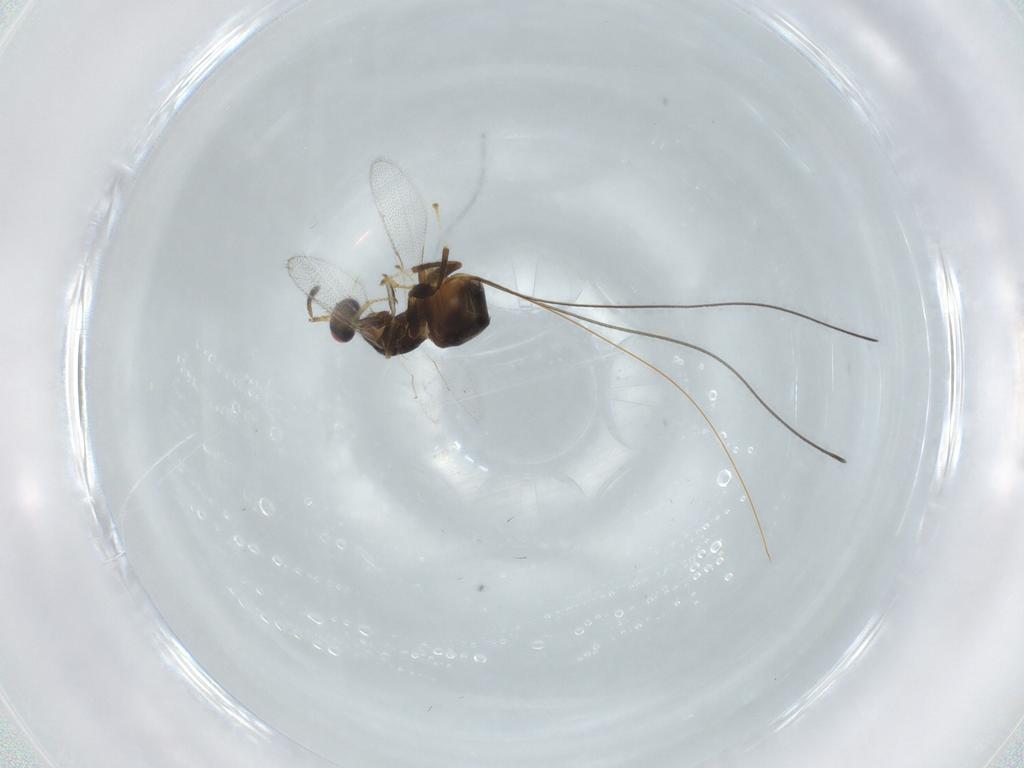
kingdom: Animalia
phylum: Arthropoda
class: Insecta
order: Hymenoptera
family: Torymidae
